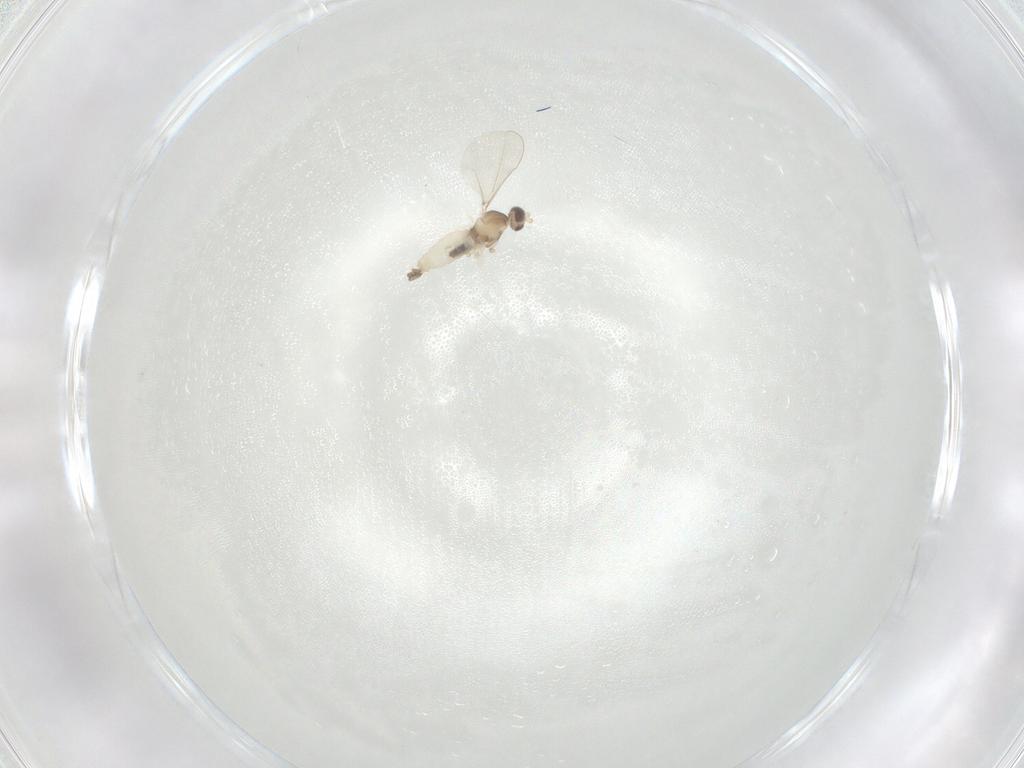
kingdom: Animalia
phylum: Arthropoda
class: Insecta
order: Diptera
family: Cecidomyiidae
